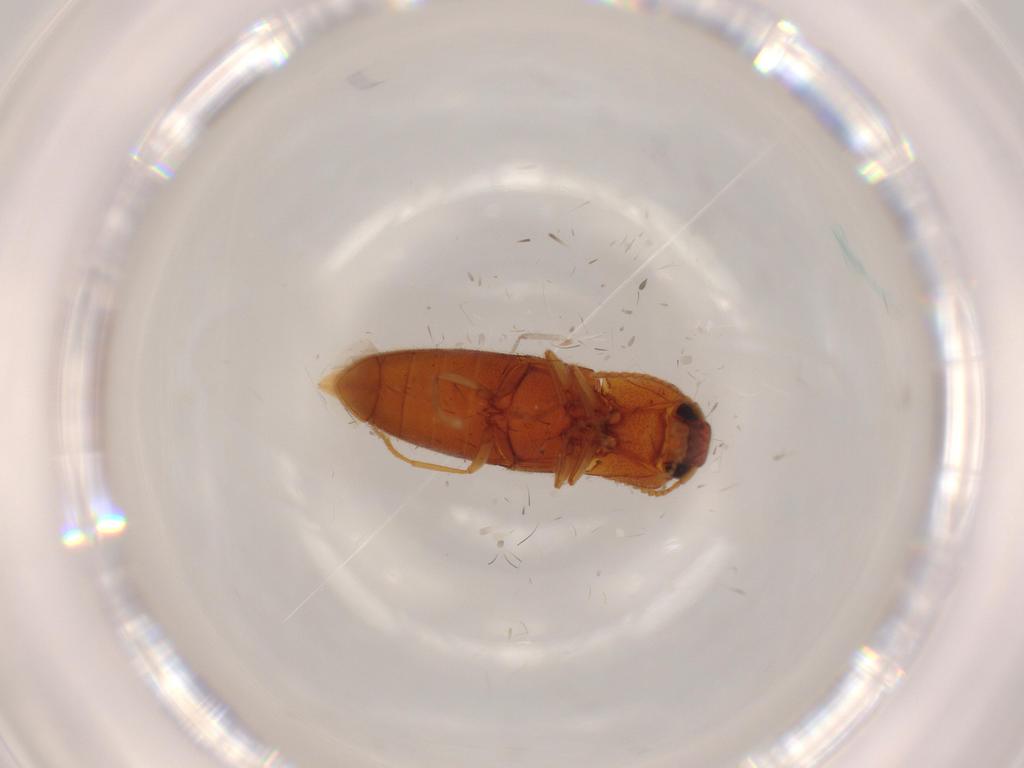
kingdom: Animalia
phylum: Arthropoda
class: Insecta
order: Coleoptera
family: Elateridae
